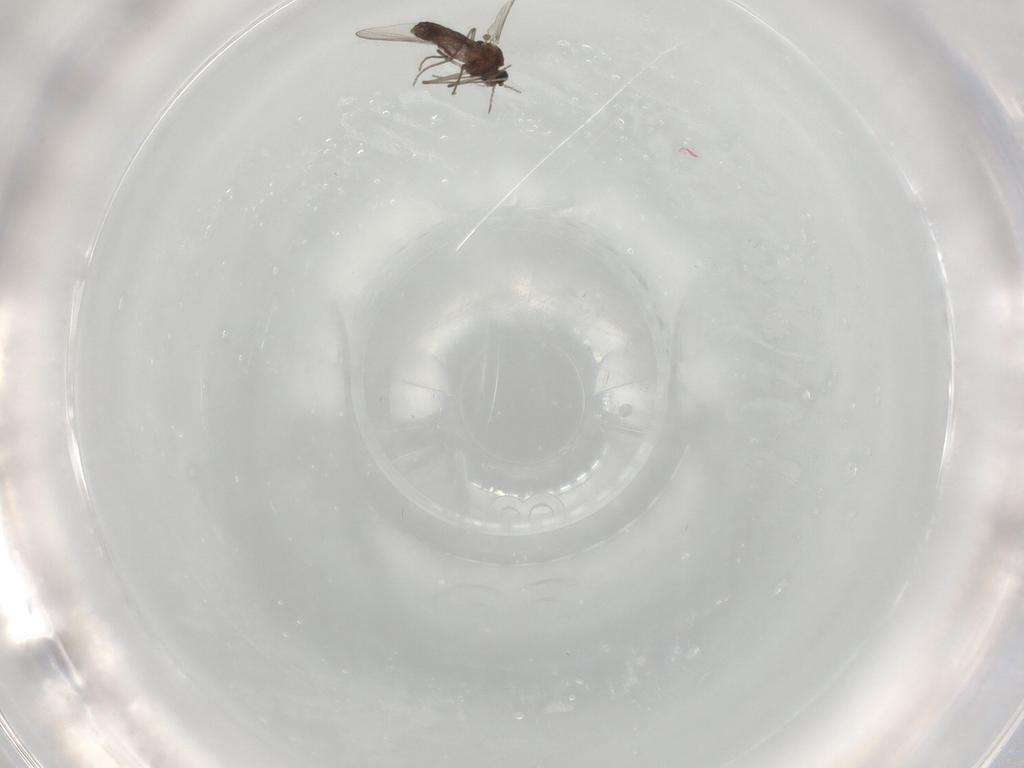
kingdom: Animalia
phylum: Arthropoda
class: Insecta
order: Diptera
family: Chironomidae
